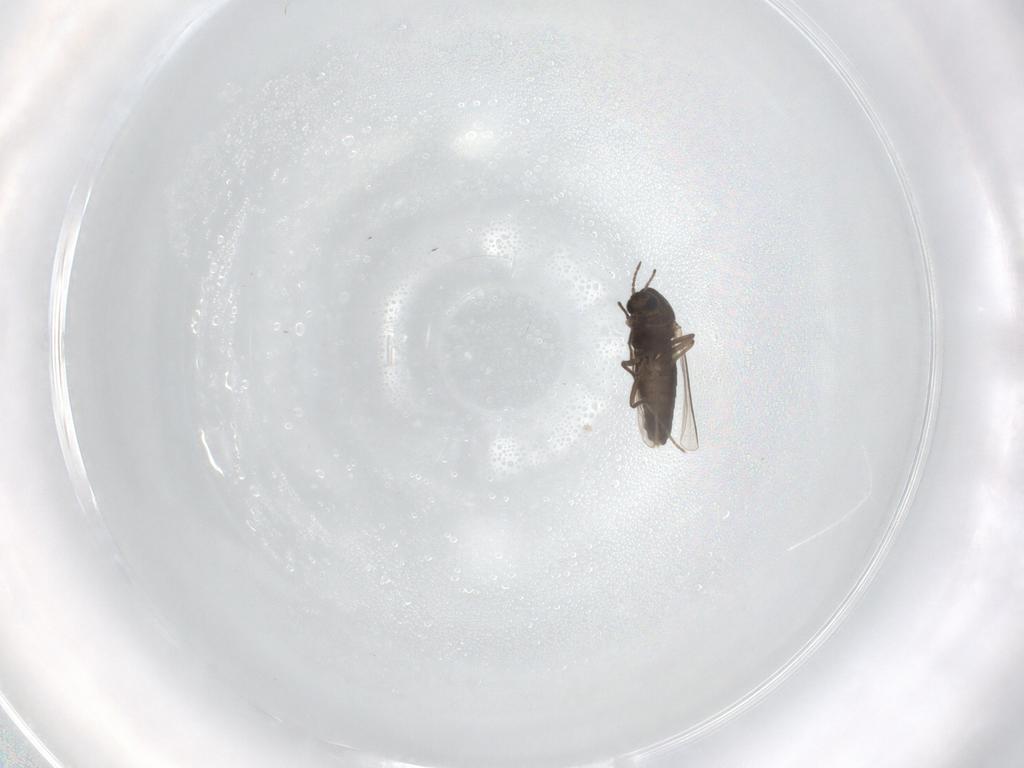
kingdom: Animalia
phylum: Arthropoda
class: Insecta
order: Diptera
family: Chironomidae
